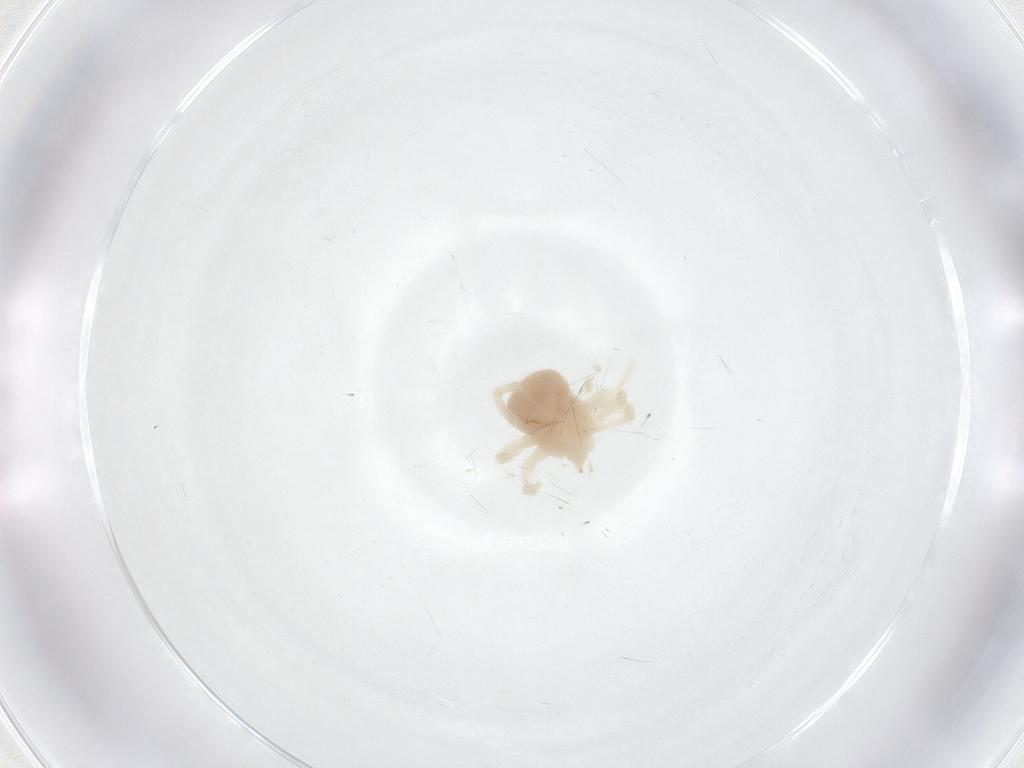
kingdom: Animalia
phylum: Arthropoda
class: Arachnida
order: Trombidiformes
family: Anystidae
